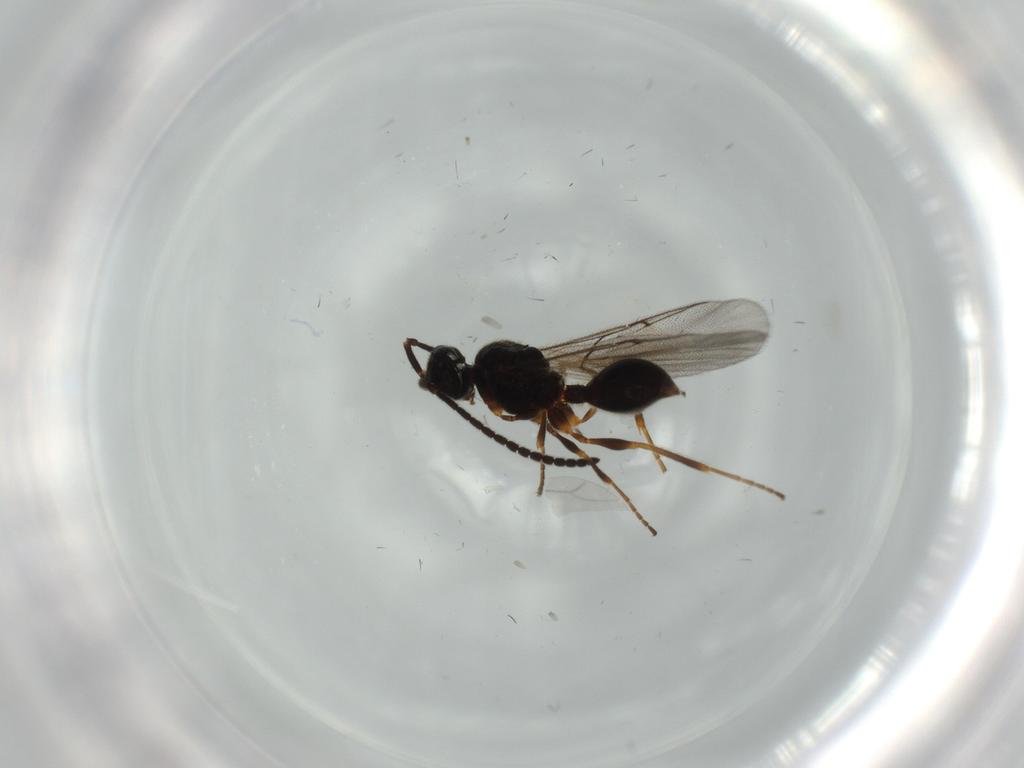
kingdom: Animalia
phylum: Arthropoda
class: Insecta
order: Hymenoptera
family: Diapriidae
